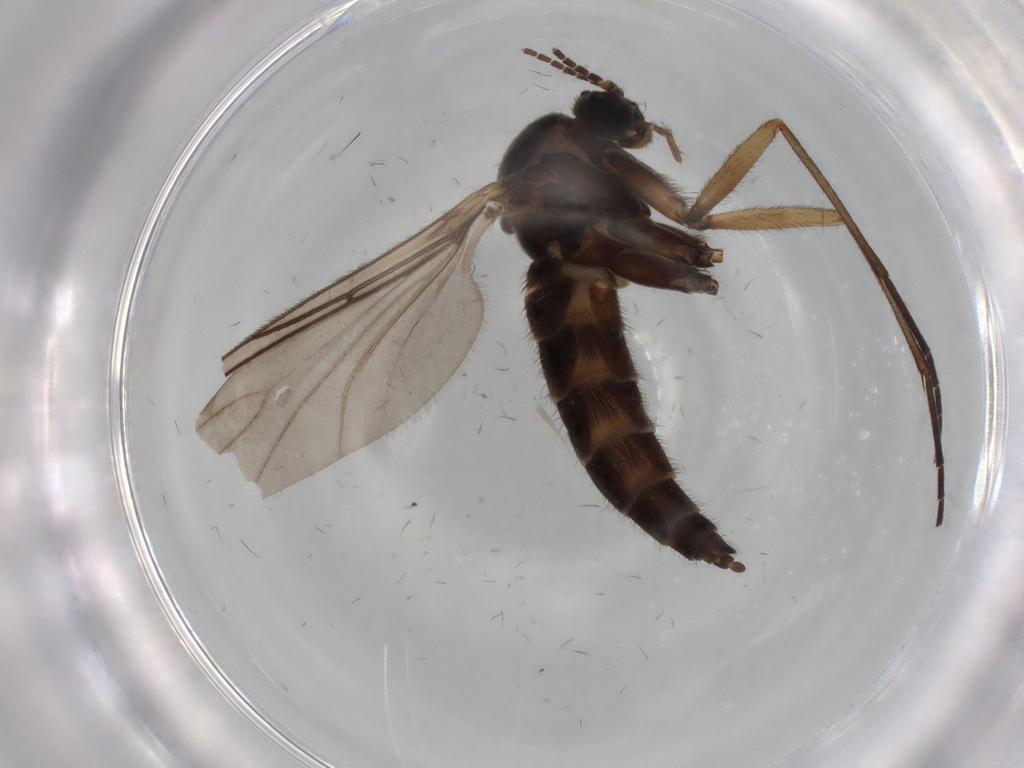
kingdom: Animalia
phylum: Arthropoda
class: Insecta
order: Diptera
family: Sciaridae
